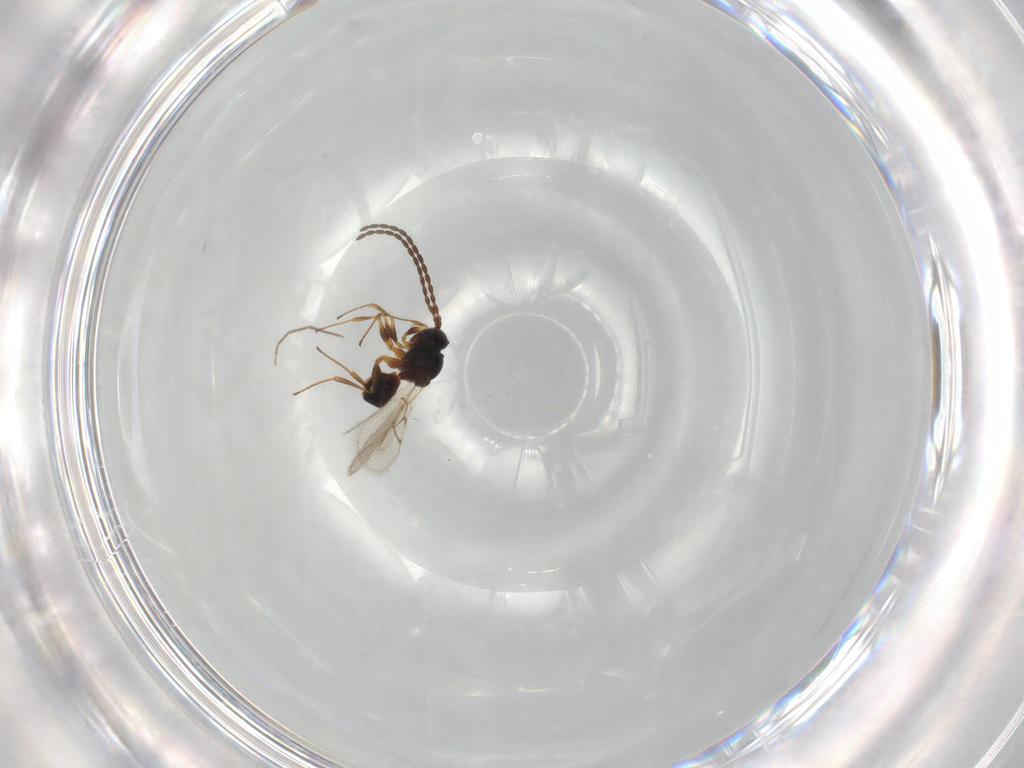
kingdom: Animalia
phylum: Arthropoda
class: Insecta
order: Hymenoptera
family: Figitidae
